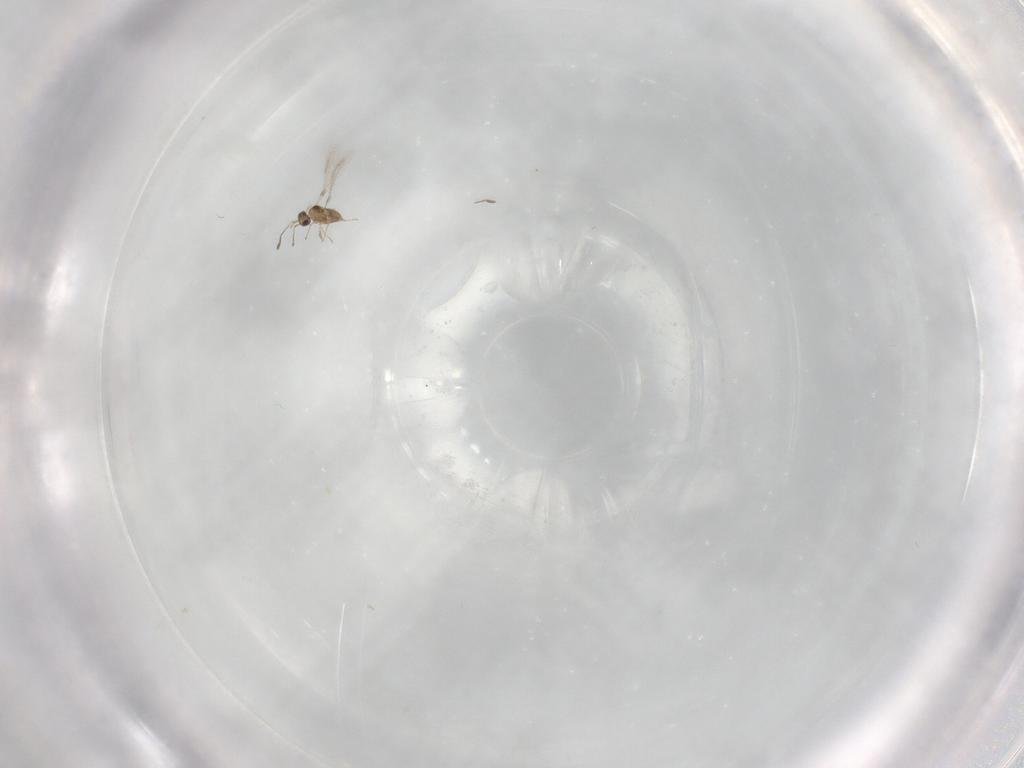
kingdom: Animalia
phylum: Arthropoda
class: Insecta
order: Hymenoptera
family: Mymaridae
